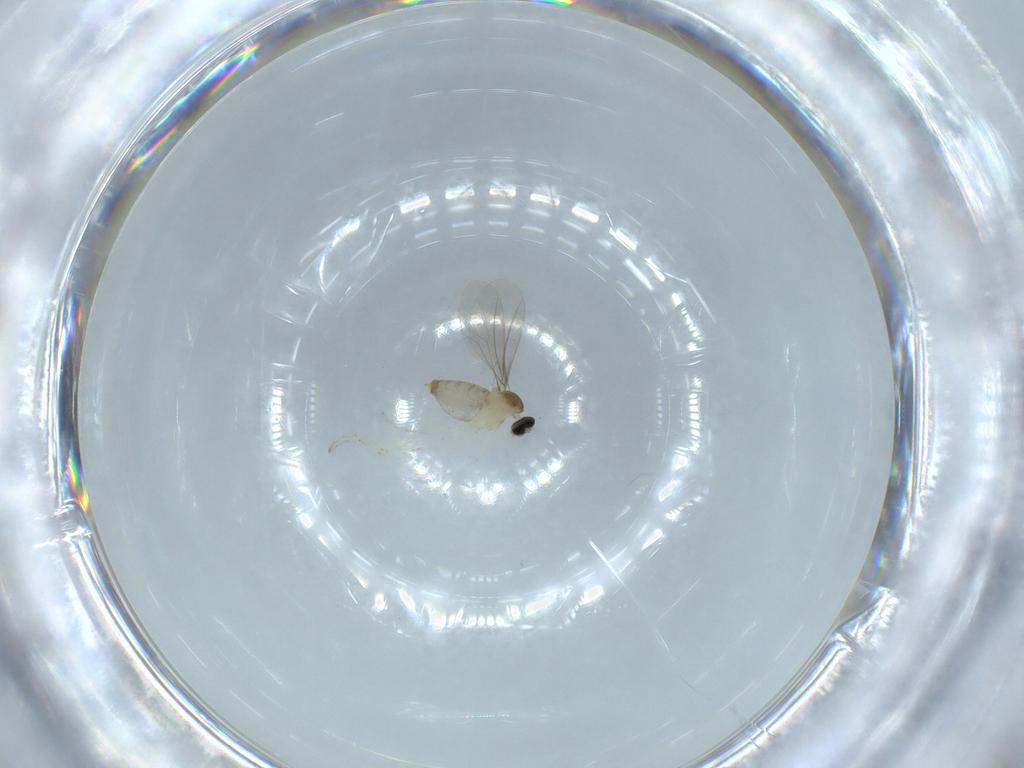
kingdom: Animalia
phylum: Arthropoda
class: Insecta
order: Diptera
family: Cecidomyiidae
